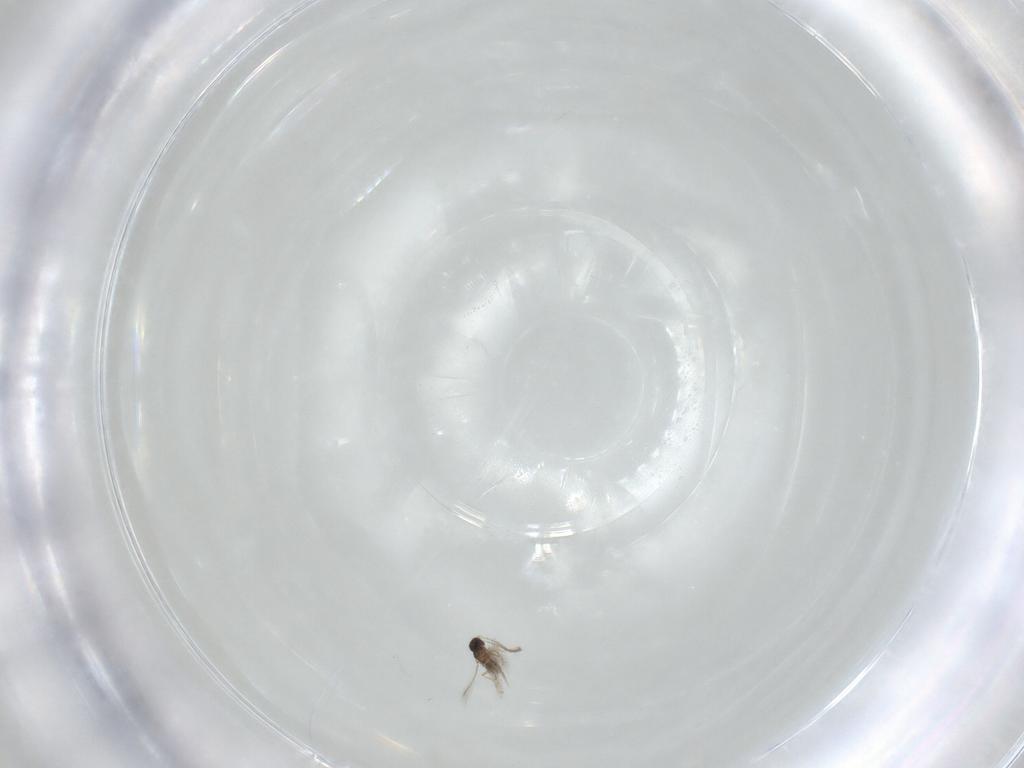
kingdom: Animalia
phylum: Arthropoda
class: Insecta
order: Hymenoptera
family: Mymaridae
